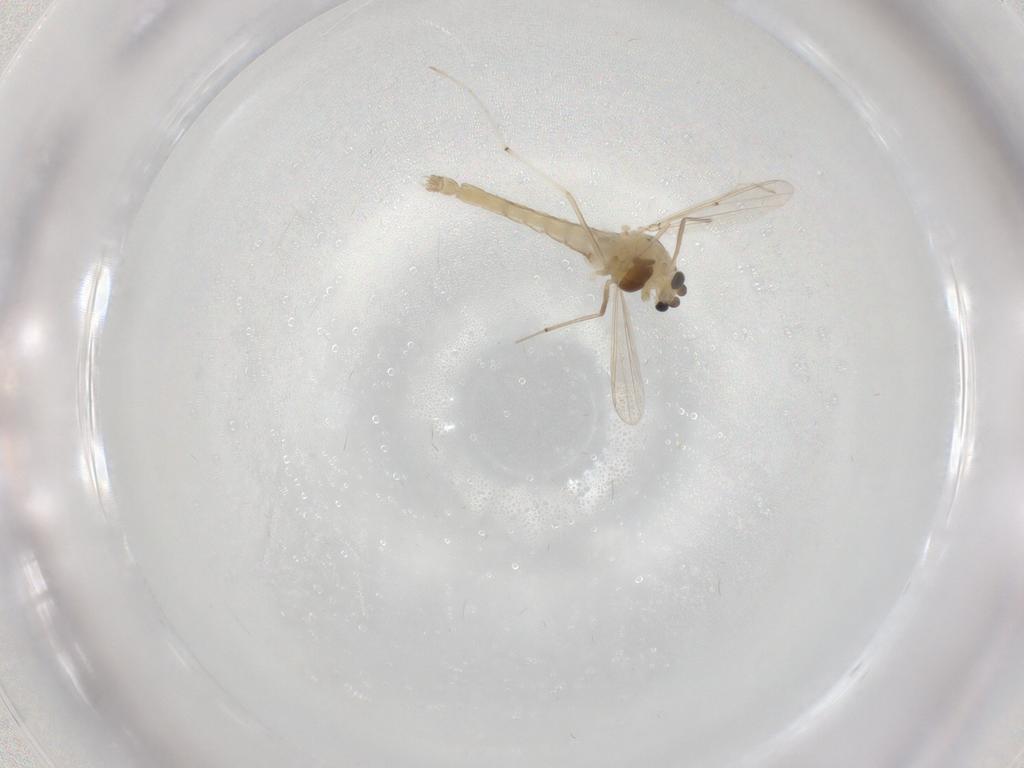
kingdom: Animalia
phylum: Arthropoda
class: Insecta
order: Diptera
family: Chironomidae
